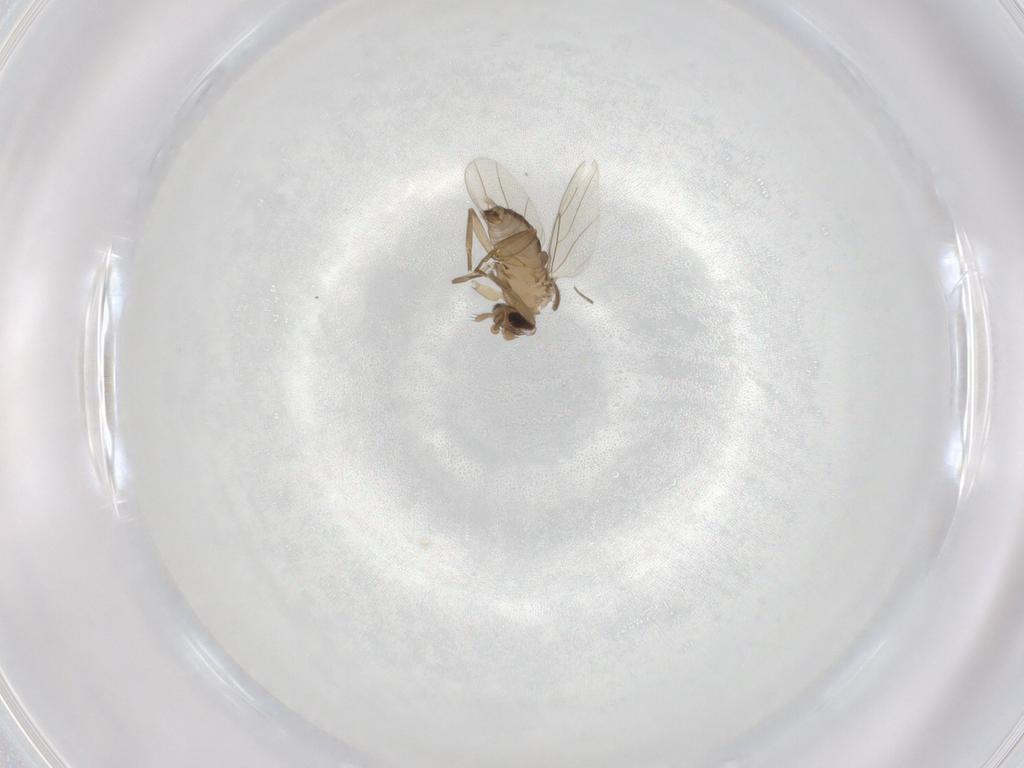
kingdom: Animalia
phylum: Arthropoda
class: Insecta
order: Diptera
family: Phoridae
